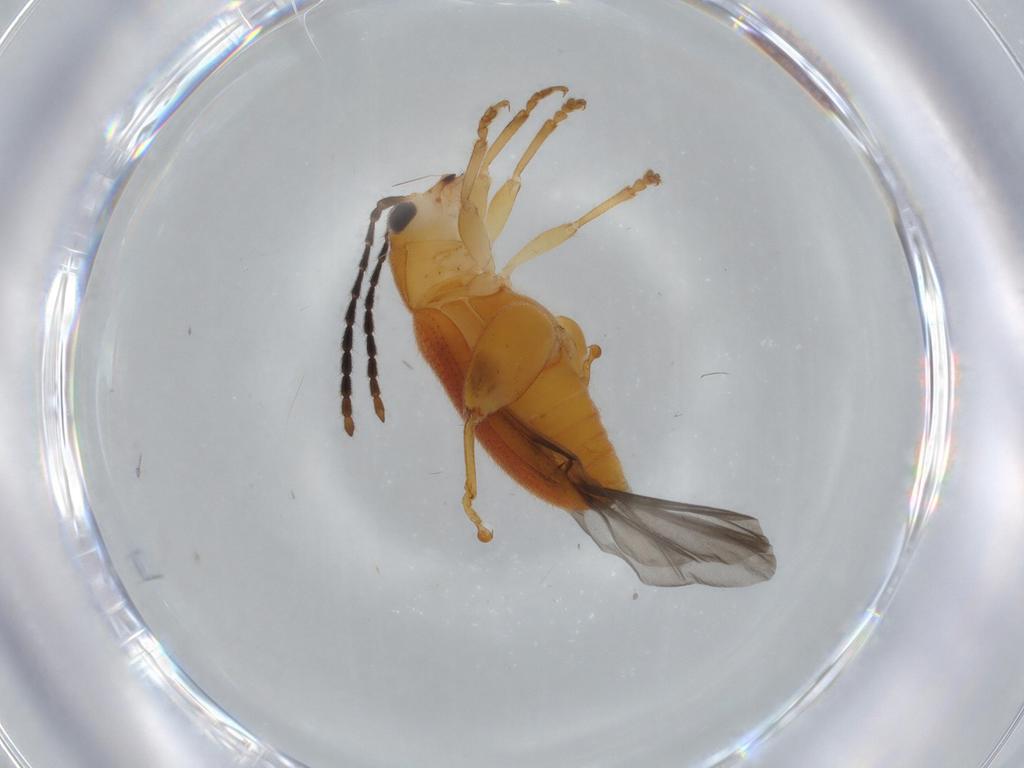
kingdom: Animalia
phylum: Arthropoda
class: Insecta
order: Coleoptera
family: Chrysomelidae
